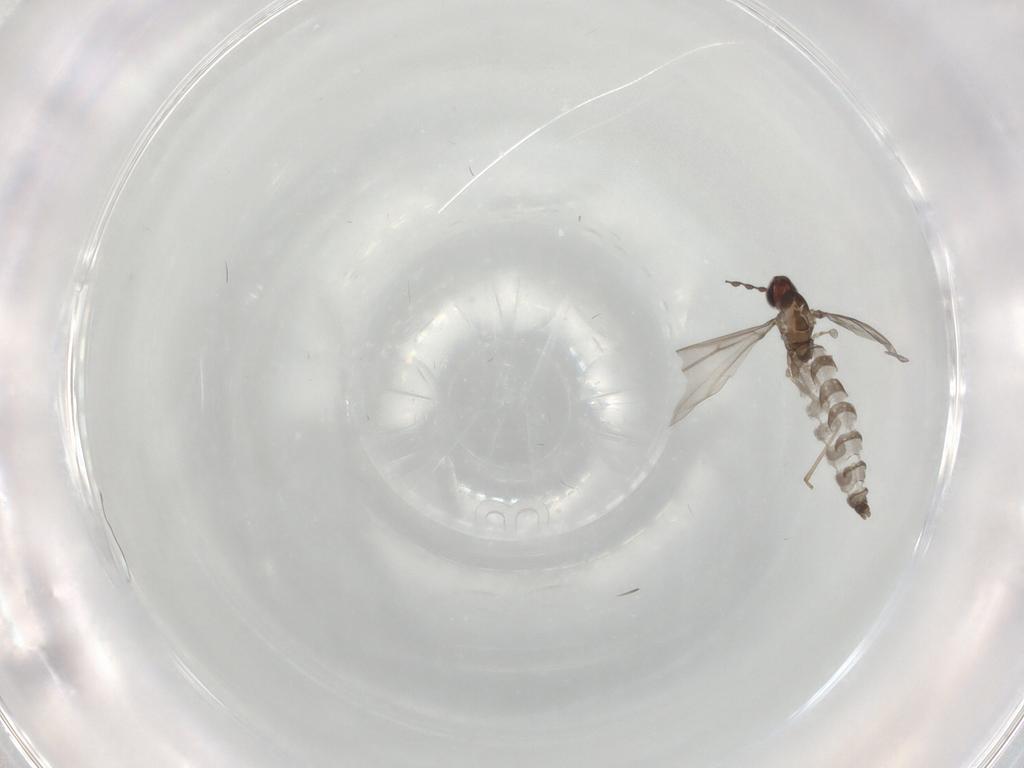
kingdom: Animalia
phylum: Arthropoda
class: Insecta
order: Diptera
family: Cecidomyiidae
